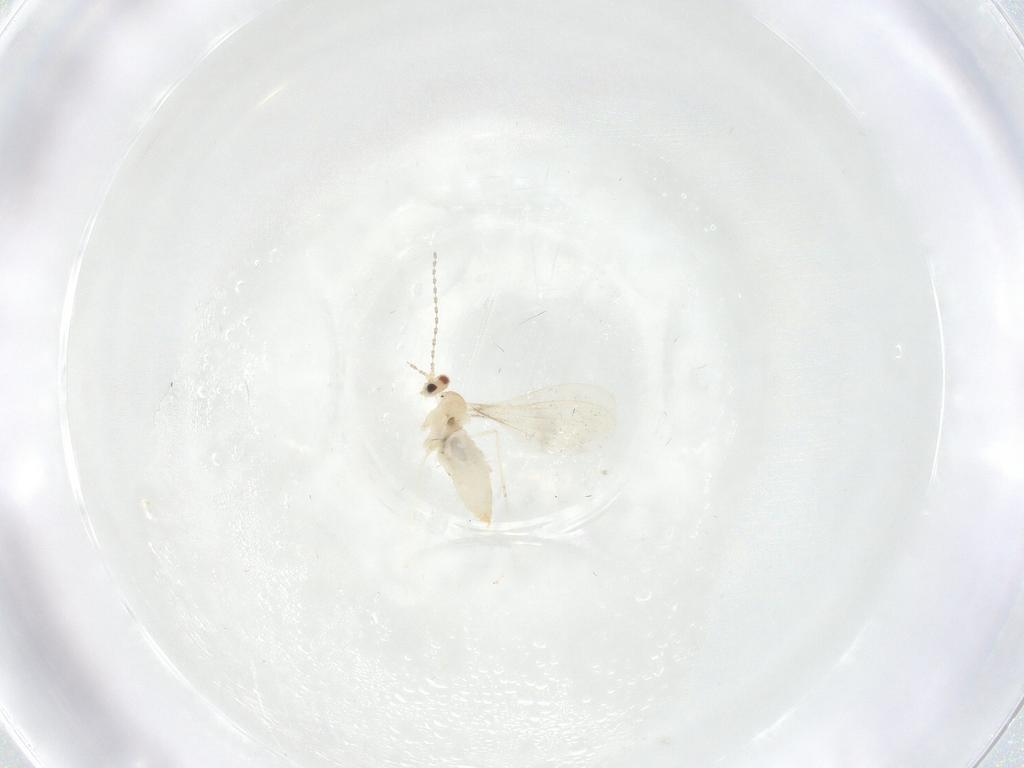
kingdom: Animalia
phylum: Arthropoda
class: Insecta
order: Diptera
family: Cecidomyiidae
